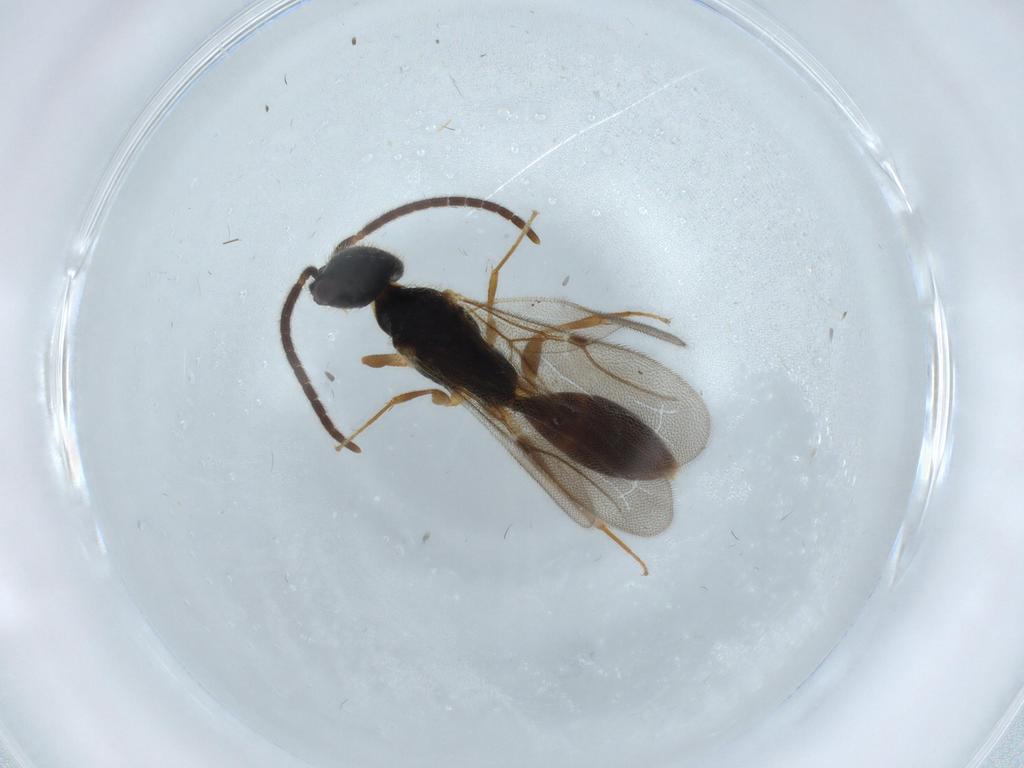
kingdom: Animalia
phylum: Arthropoda
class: Insecta
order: Hymenoptera
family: Bethylidae
